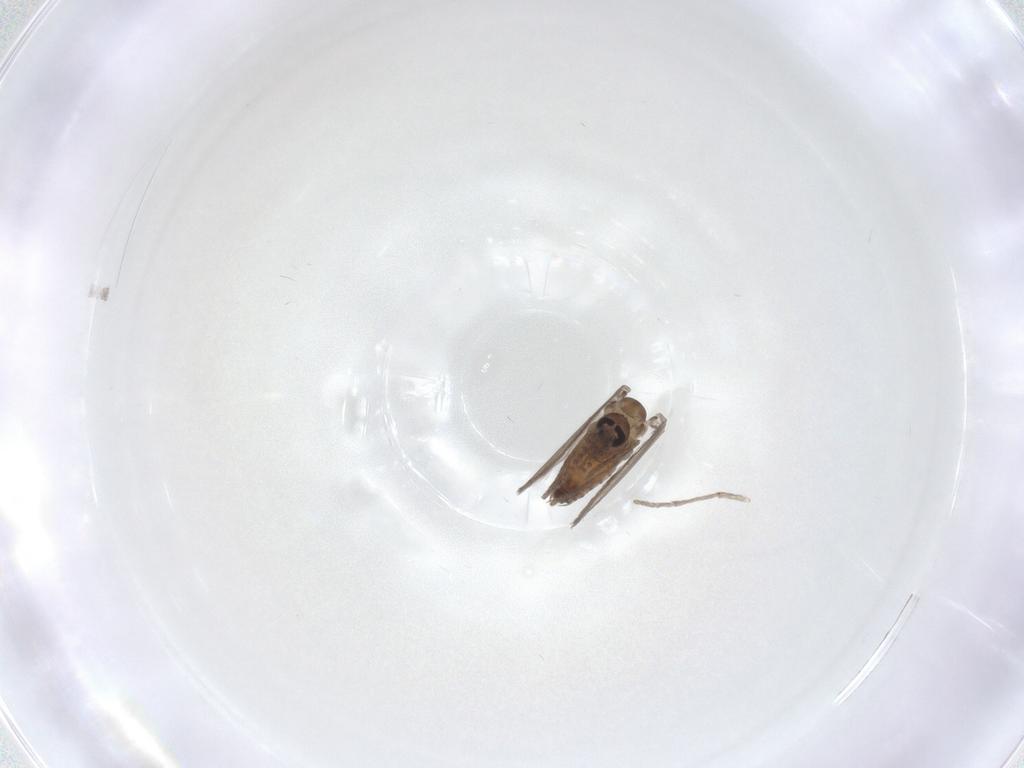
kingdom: Animalia
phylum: Arthropoda
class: Insecta
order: Diptera
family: Psychodidae
